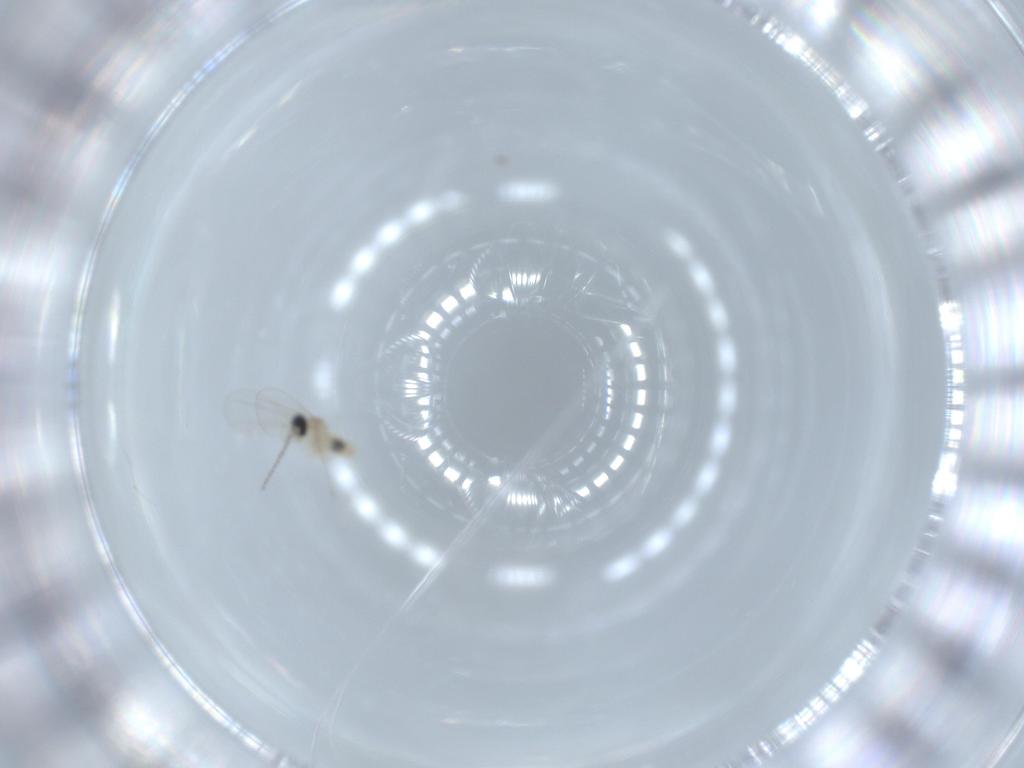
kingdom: Animalia
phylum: Arthropoda
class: Insecta
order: Diptera
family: Cecidomyiidae
